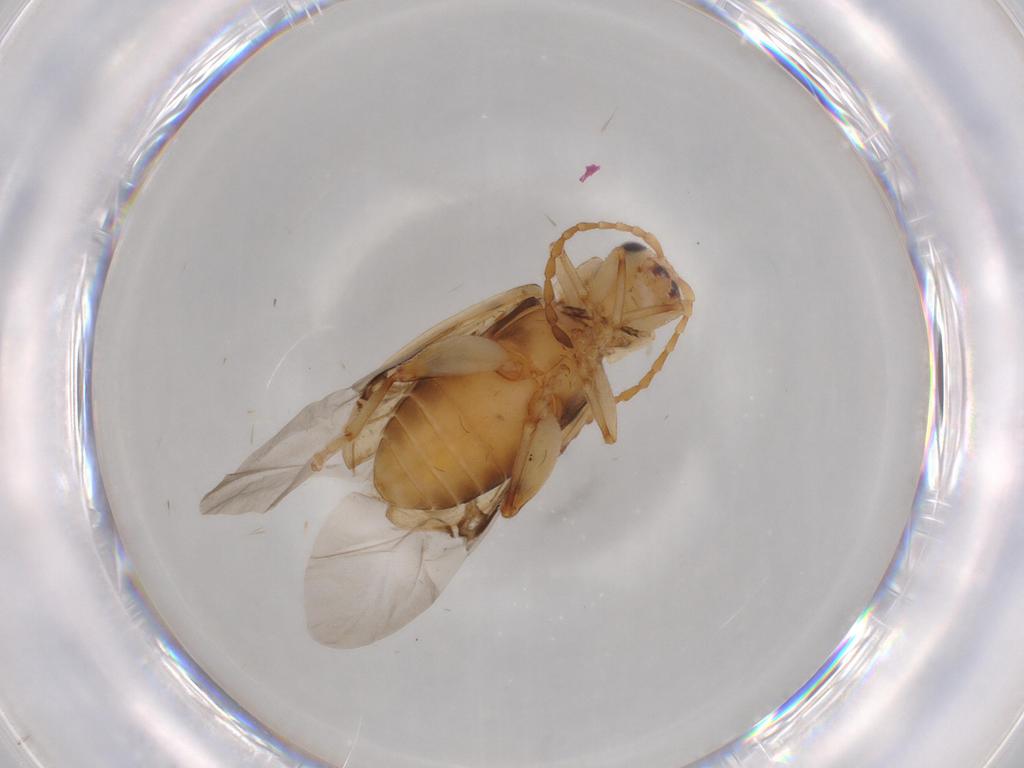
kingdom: Animalia
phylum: Arthropoda
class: Insecta
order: Coleoptera
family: Chrysomelidae
